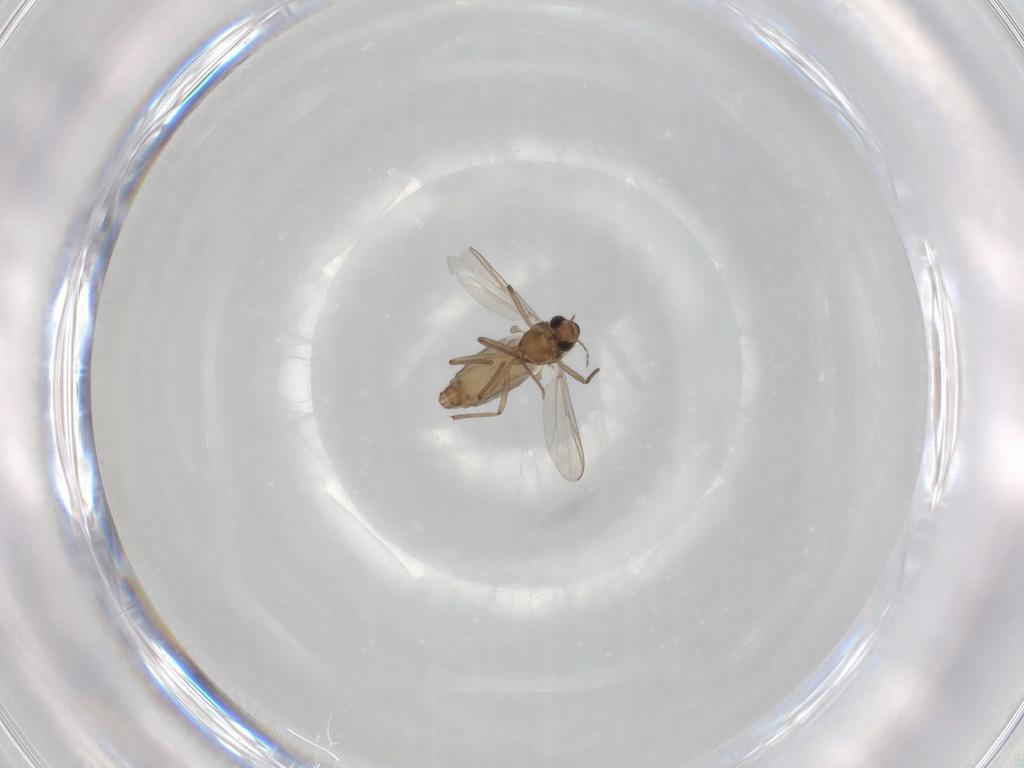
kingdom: Animalia
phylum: Arthropoda
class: Insecta
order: Diptera
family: Chironomidae
